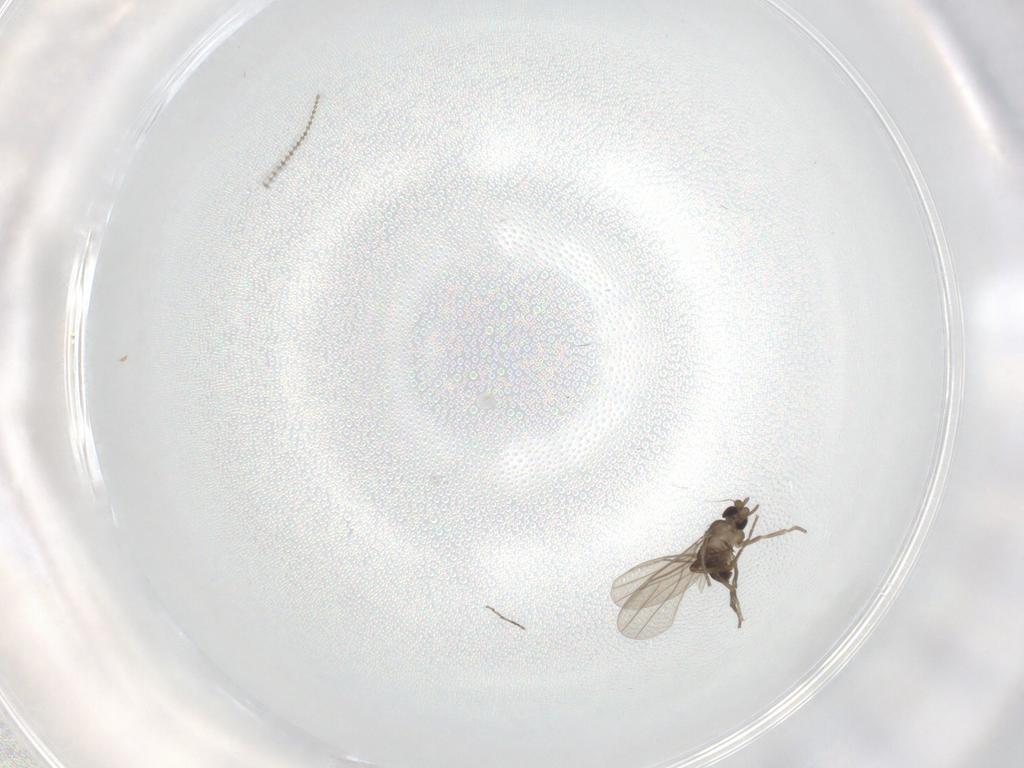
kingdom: Animalia
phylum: Arthropoda
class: Insecta
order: Diptera
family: Cecidomyiidae
